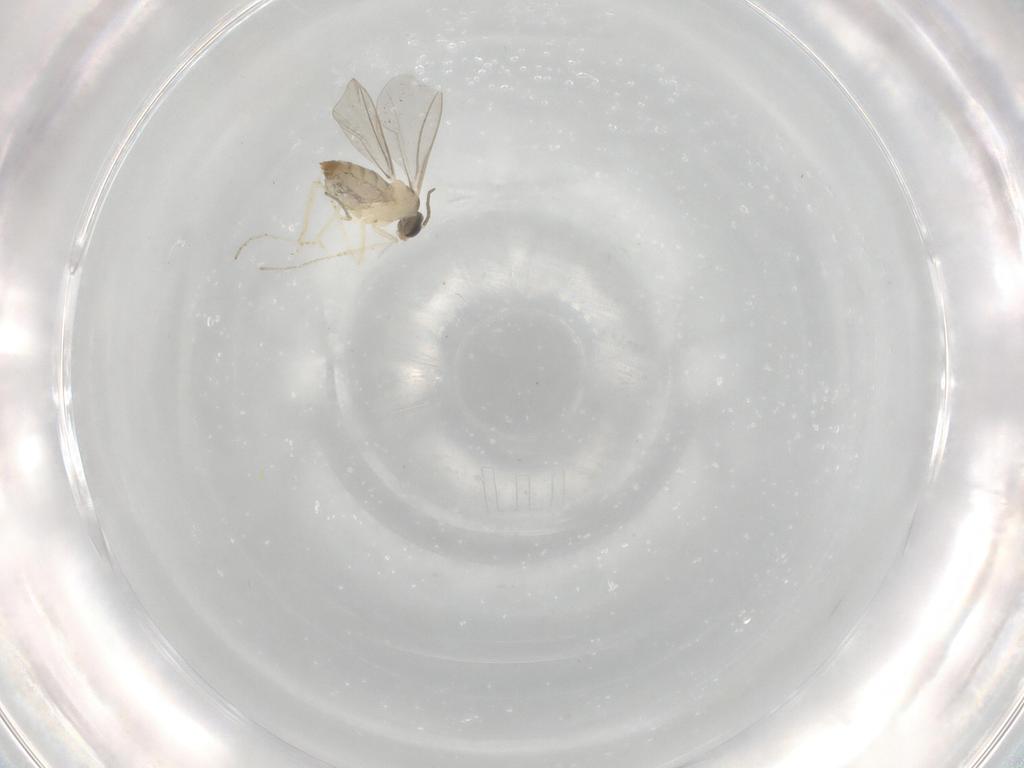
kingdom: Animalia
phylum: Arthropoda
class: Insecta
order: Diptera
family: Cecidomyiidae
